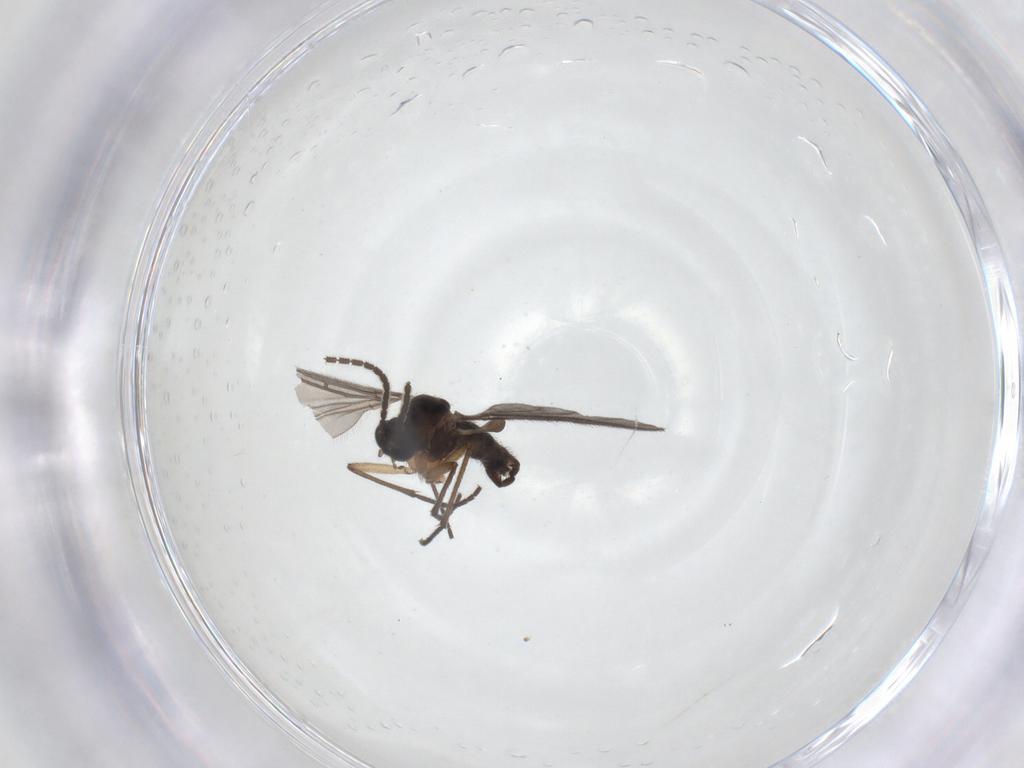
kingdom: Animalia
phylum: Arthropoda
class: Insecta
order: Diptera
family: Sciaridae
